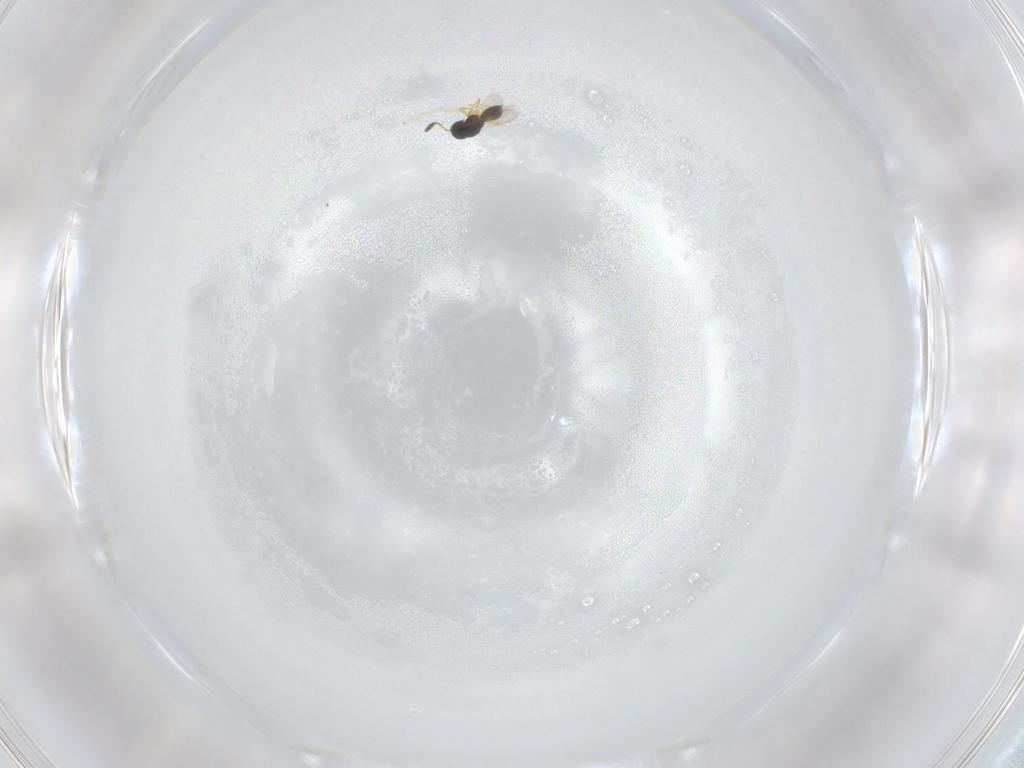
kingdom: Animalia
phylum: Arthropoda
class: Insecta
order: Hymenoptera
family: Scelionidae
